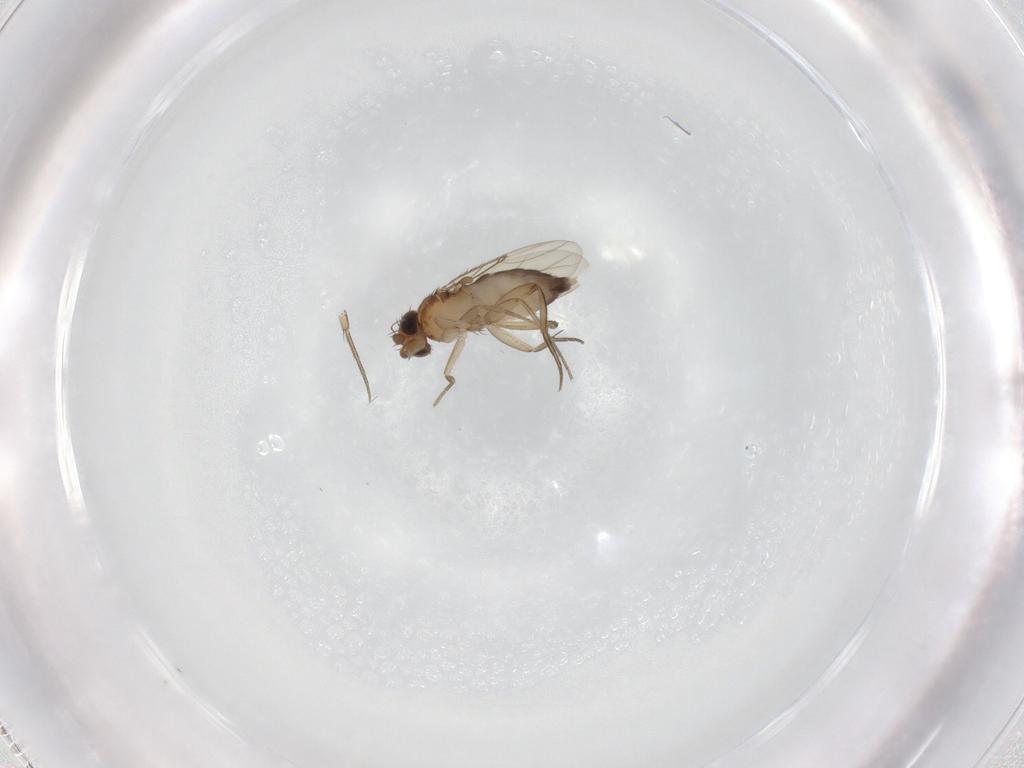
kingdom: Animalia
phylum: Arthropoda
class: Insecta
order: Diptera
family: Phoridae
